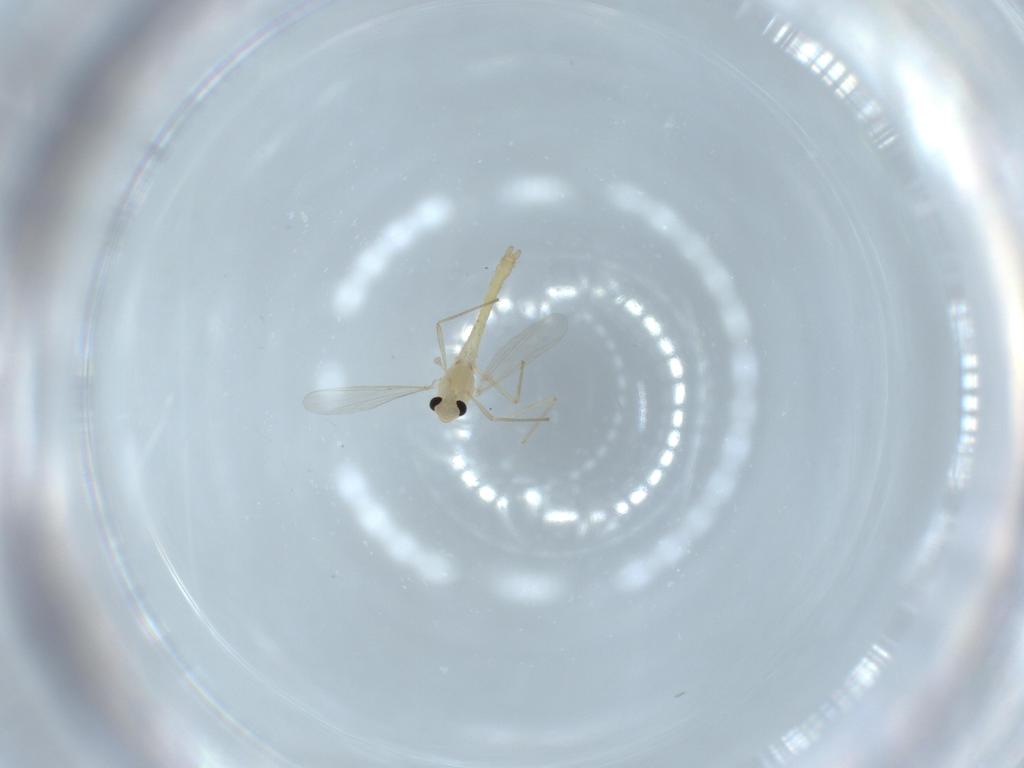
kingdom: Animalia
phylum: Arthropoda
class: Insecta
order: Diptera
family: Chironomidae
